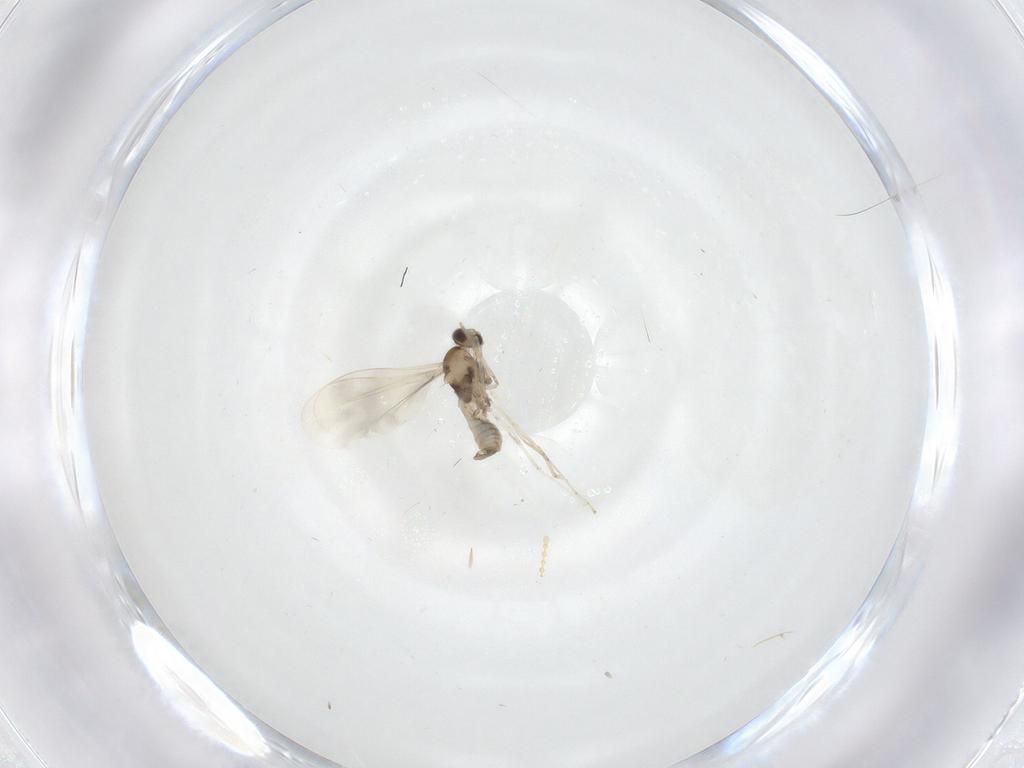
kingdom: Animalia
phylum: Arthropoda
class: Insecta
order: Diptera
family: Cecidomyiidae
